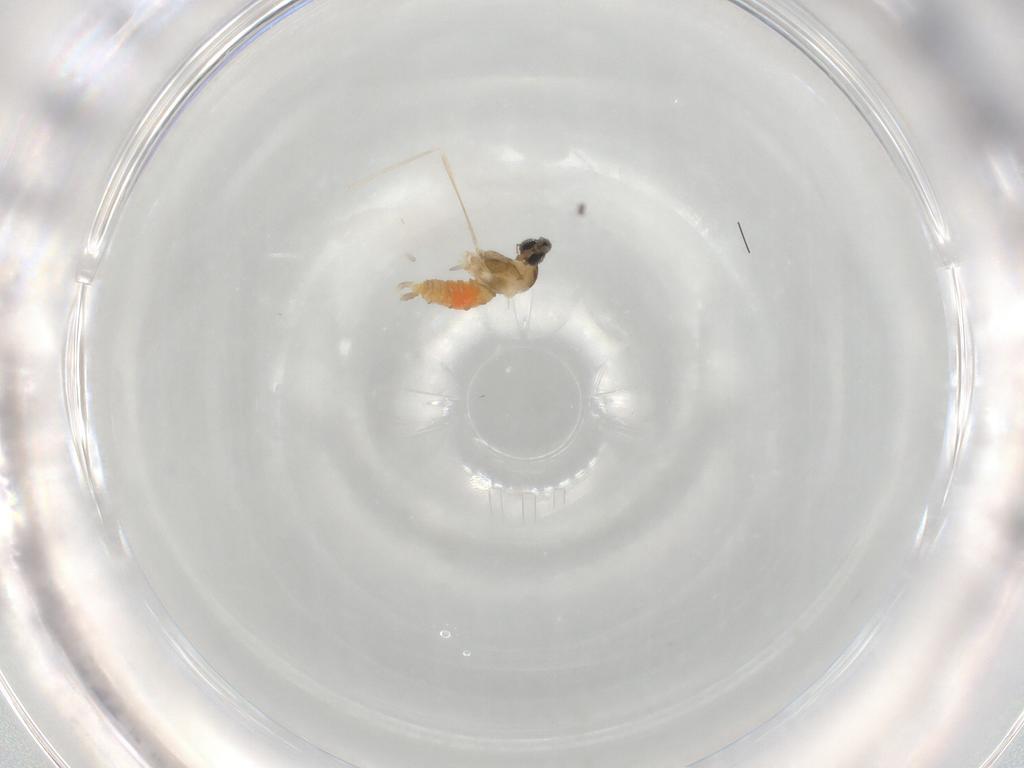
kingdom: Animalia
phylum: Arthropoda
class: Insecta
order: Diptera
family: Cecidomyiidae
